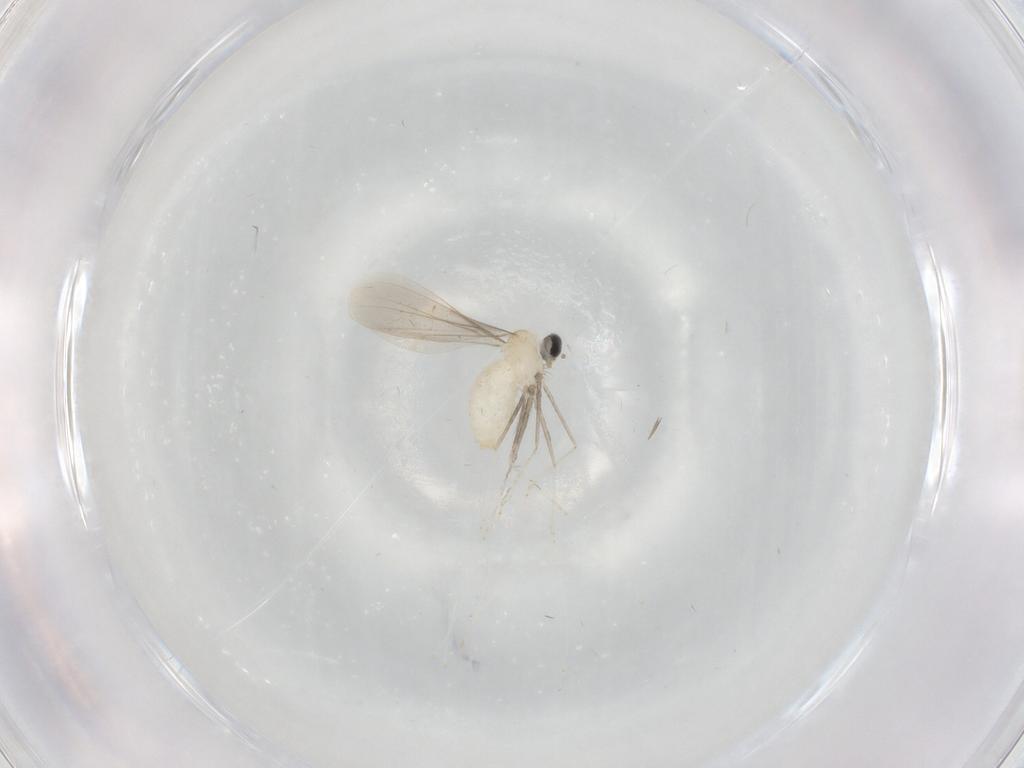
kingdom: Animalia
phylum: Arthropoda
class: Insecta
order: Diptera
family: Cecidomyiidae
